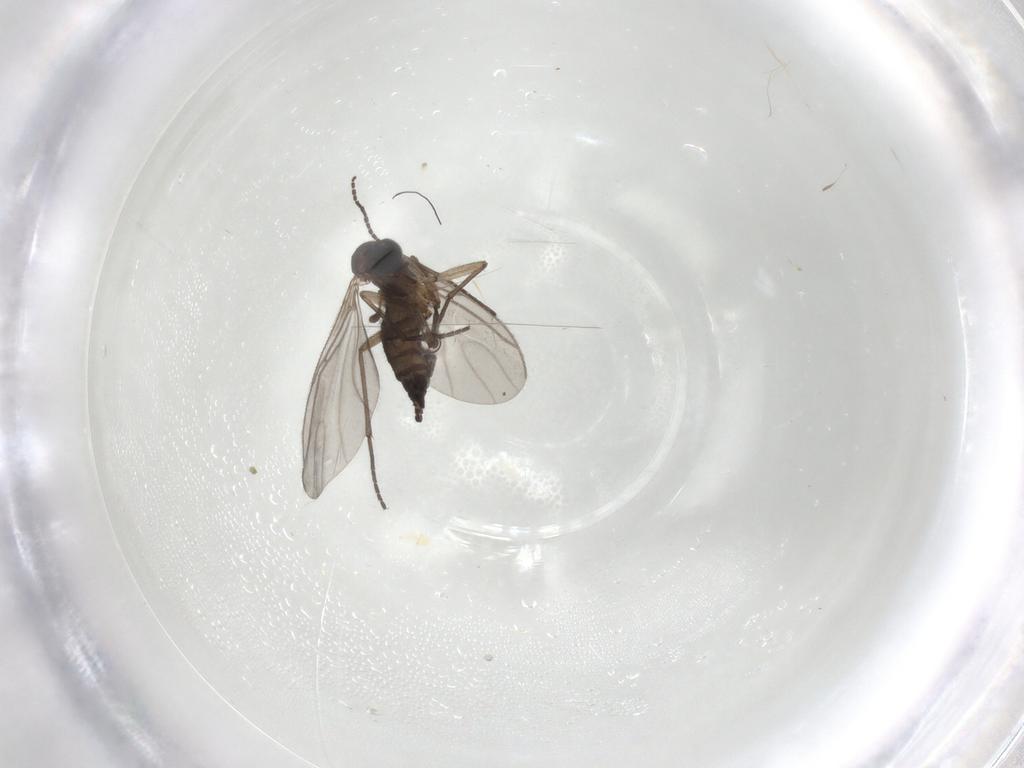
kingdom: Animalia
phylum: Arthropoda
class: Insecta
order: Diptera
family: Sciaridae
